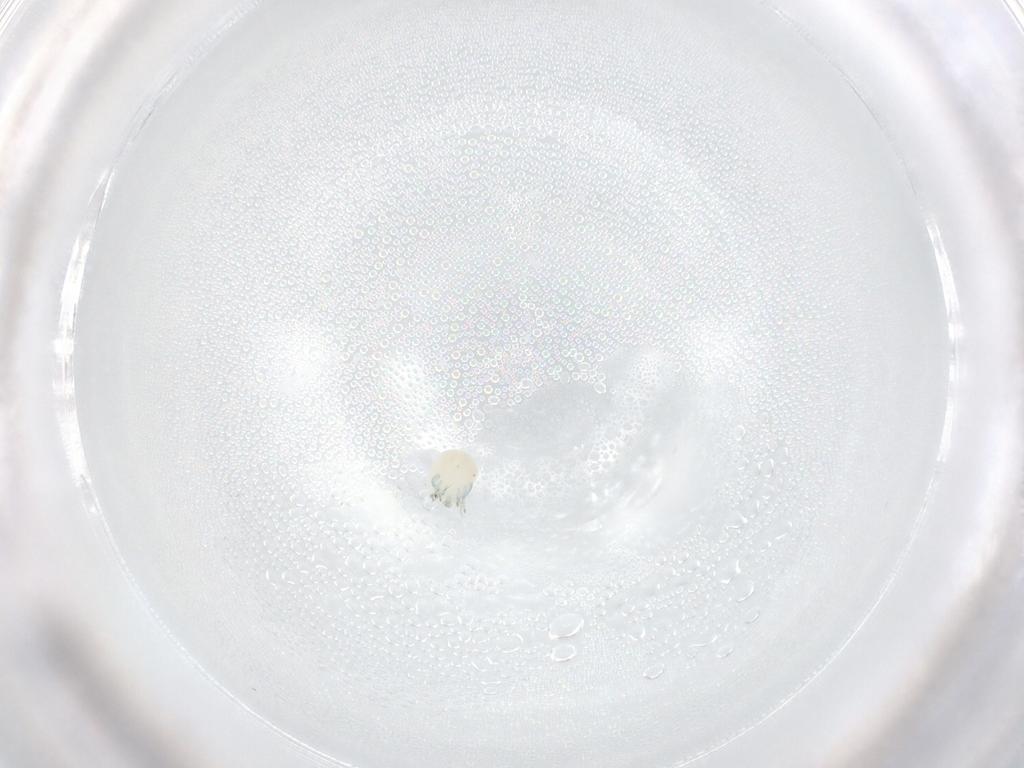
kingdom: Animalia
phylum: Arthropoda
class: Arachnida
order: Trombidiformes
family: Arrenuridae
